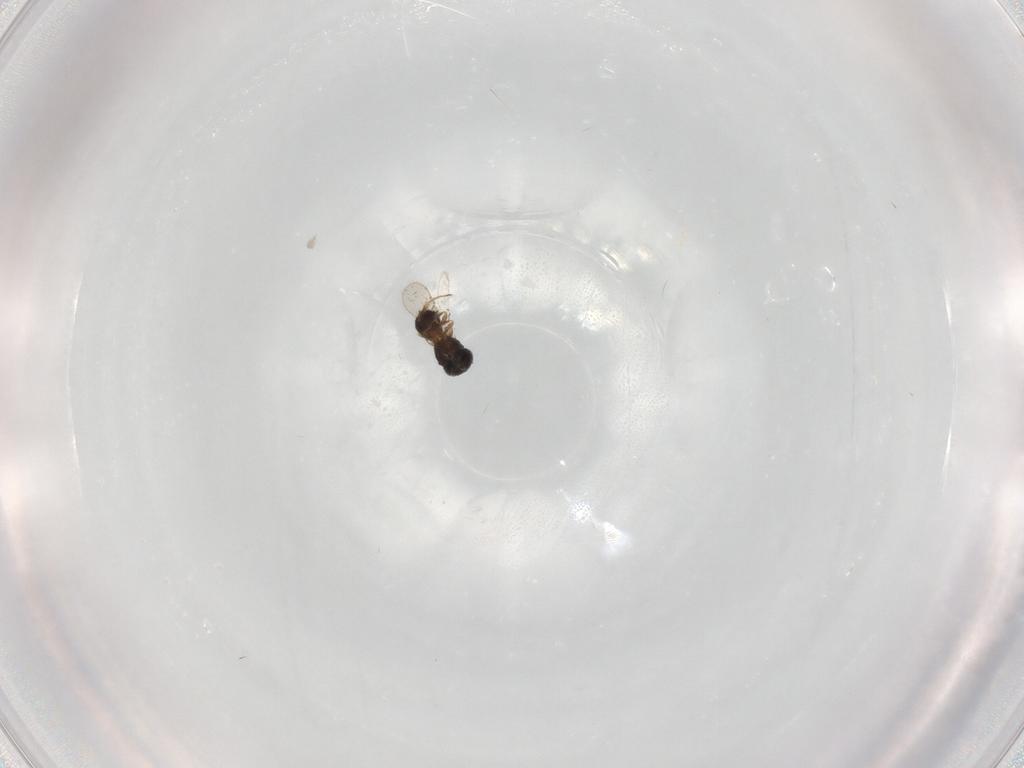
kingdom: Animalia
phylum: Arthropoda
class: Insecta
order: Hymenoptera
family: Scelionidae
